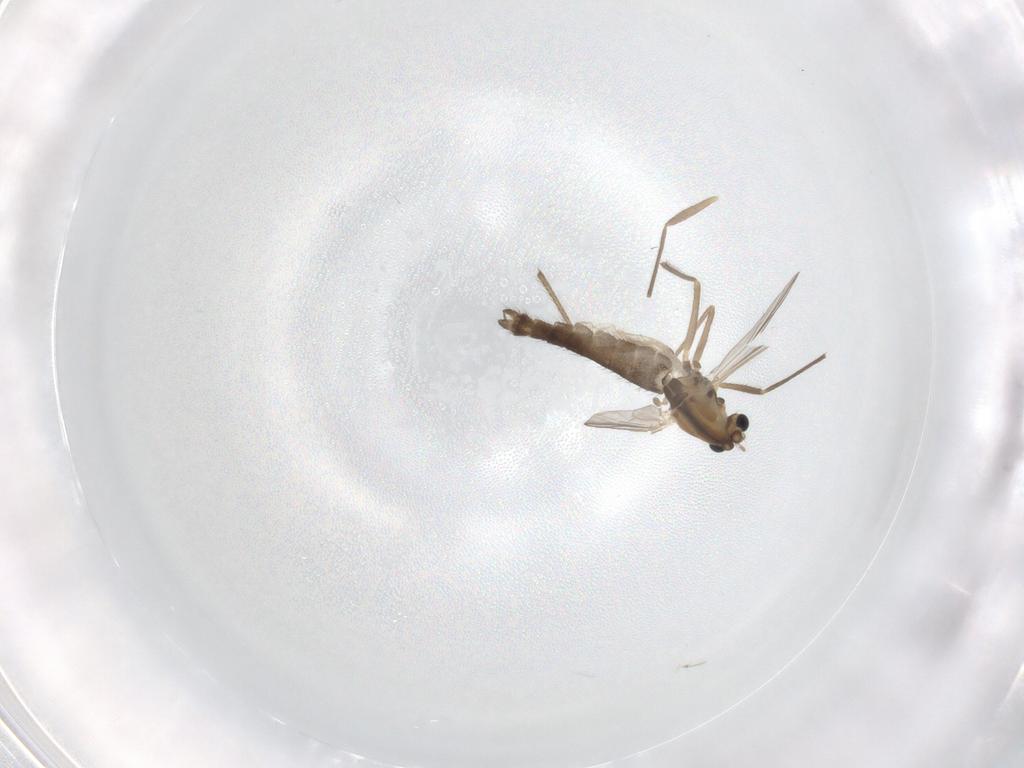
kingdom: Animalia
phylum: Arthropoda
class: Insecta
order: Diptera
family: Chironomidae
